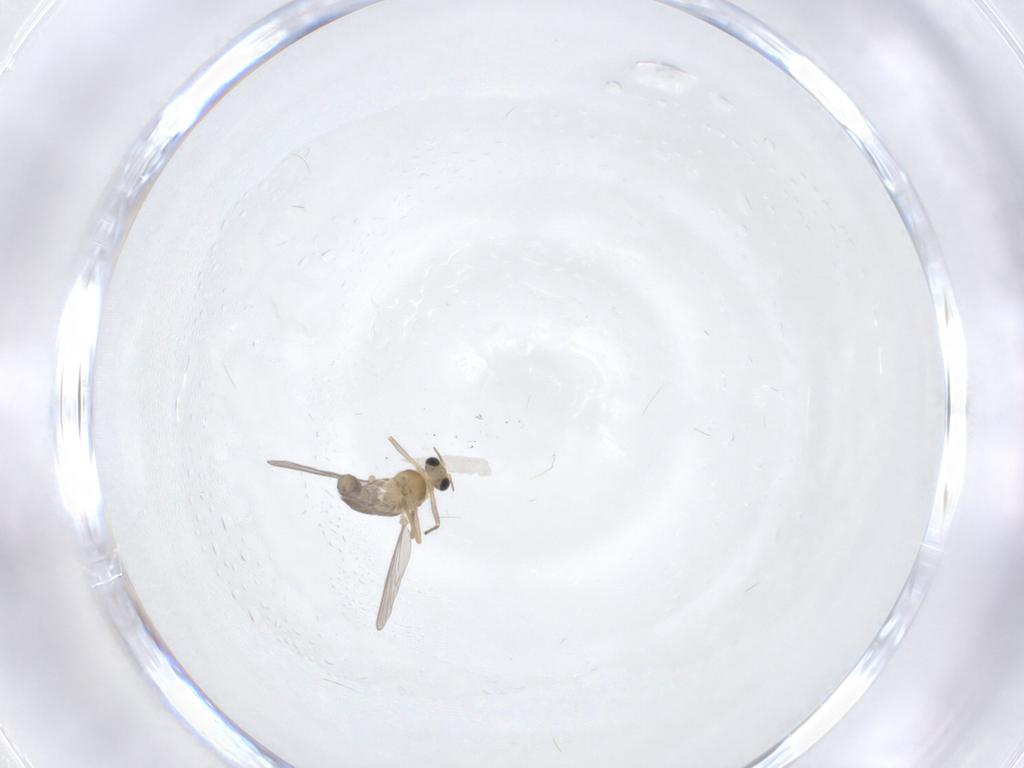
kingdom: Animalia
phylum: Arthropoda
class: Insecta
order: Diptera
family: Chironomidae
